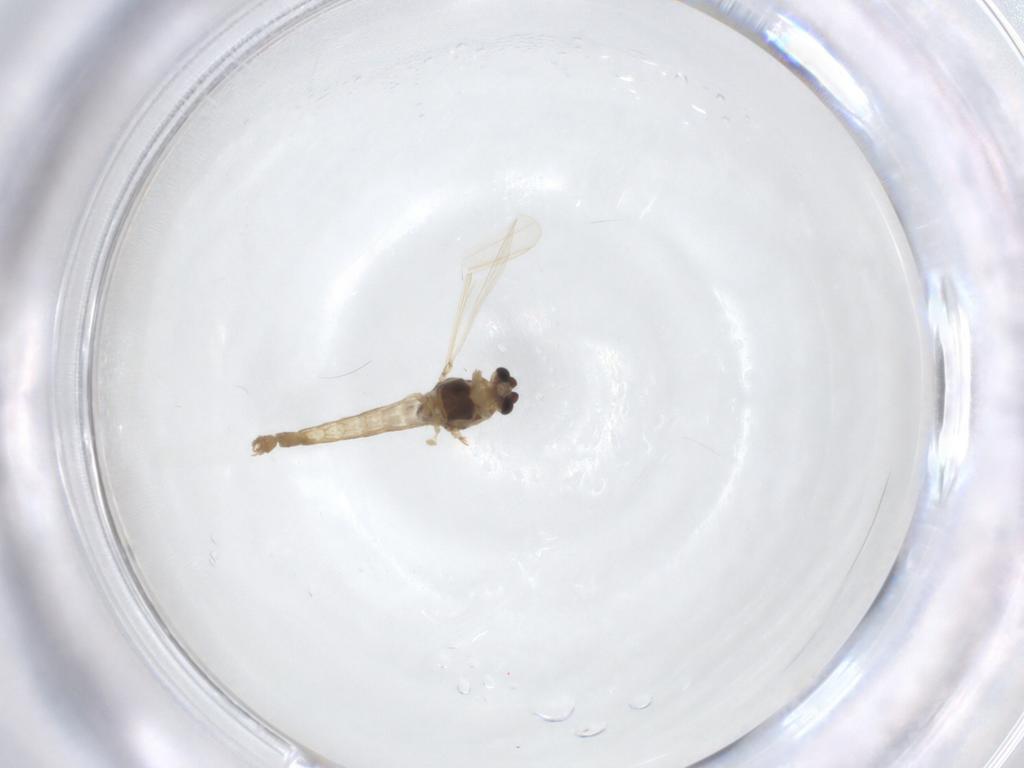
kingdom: Animalia
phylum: Arthropoda
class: Insecta
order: Diptera
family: Chironomidae
